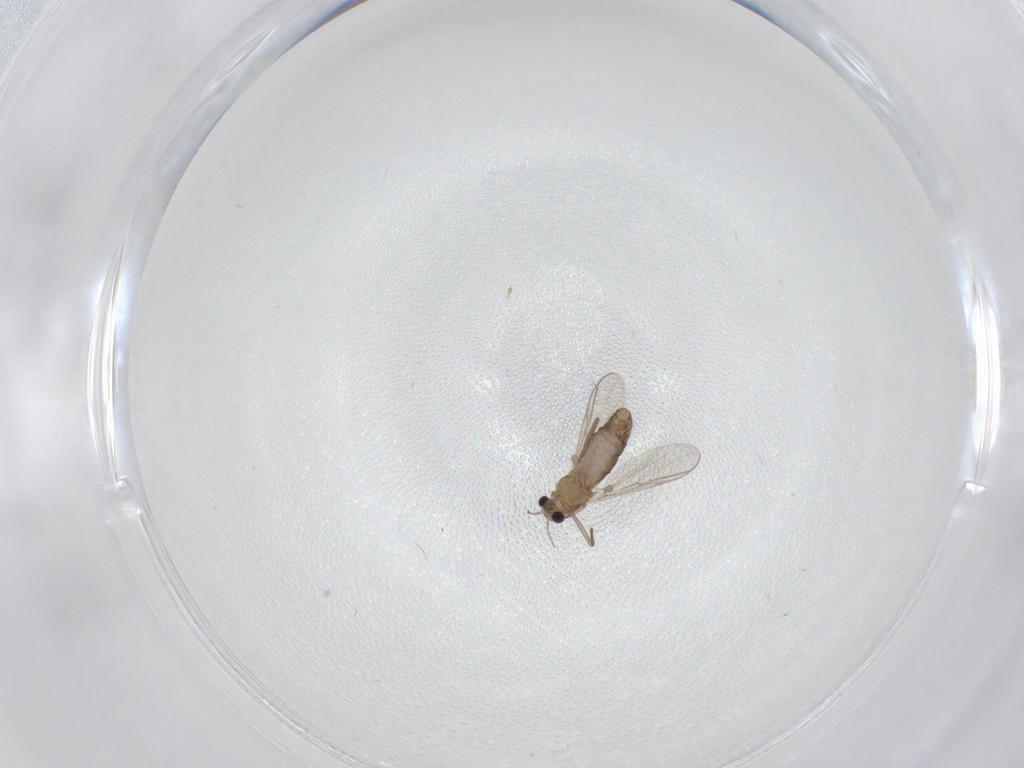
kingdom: Animalia
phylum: Arthropoda
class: Insecta
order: Diptera
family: Chironomidae
